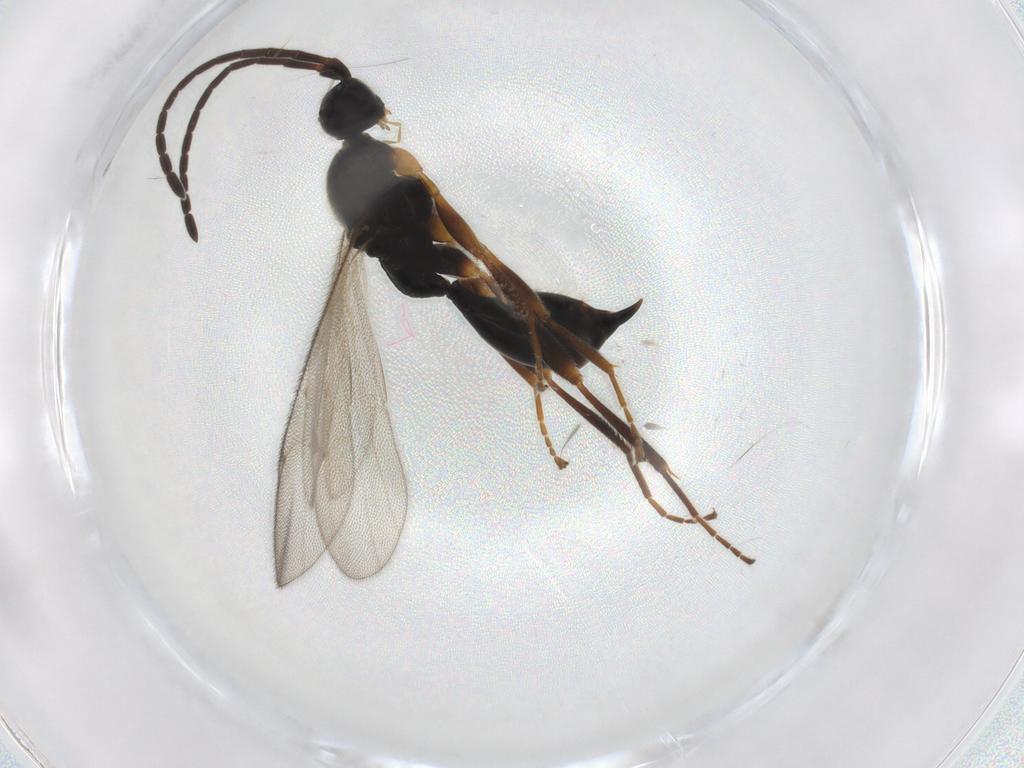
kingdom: Animalia
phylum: Arthropoda
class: Insecta
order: Hymenoptera
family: Proctotrupidae
